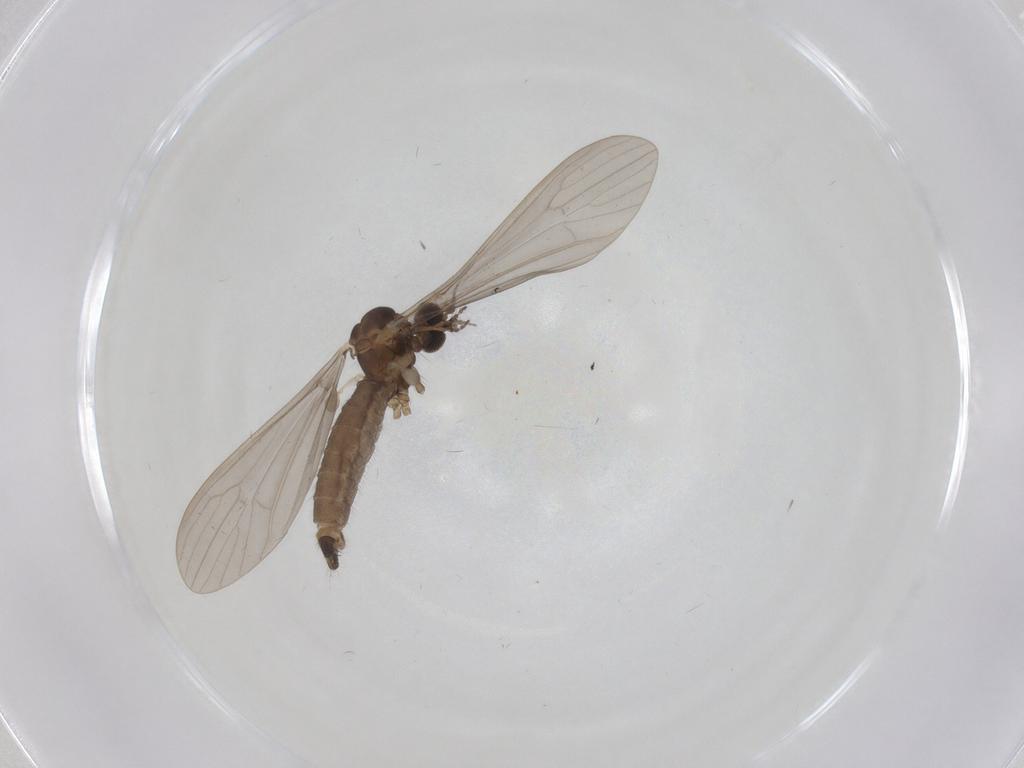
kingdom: Animalia
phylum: Arthropoda
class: Insecta
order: Diptera
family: Limoniidae
